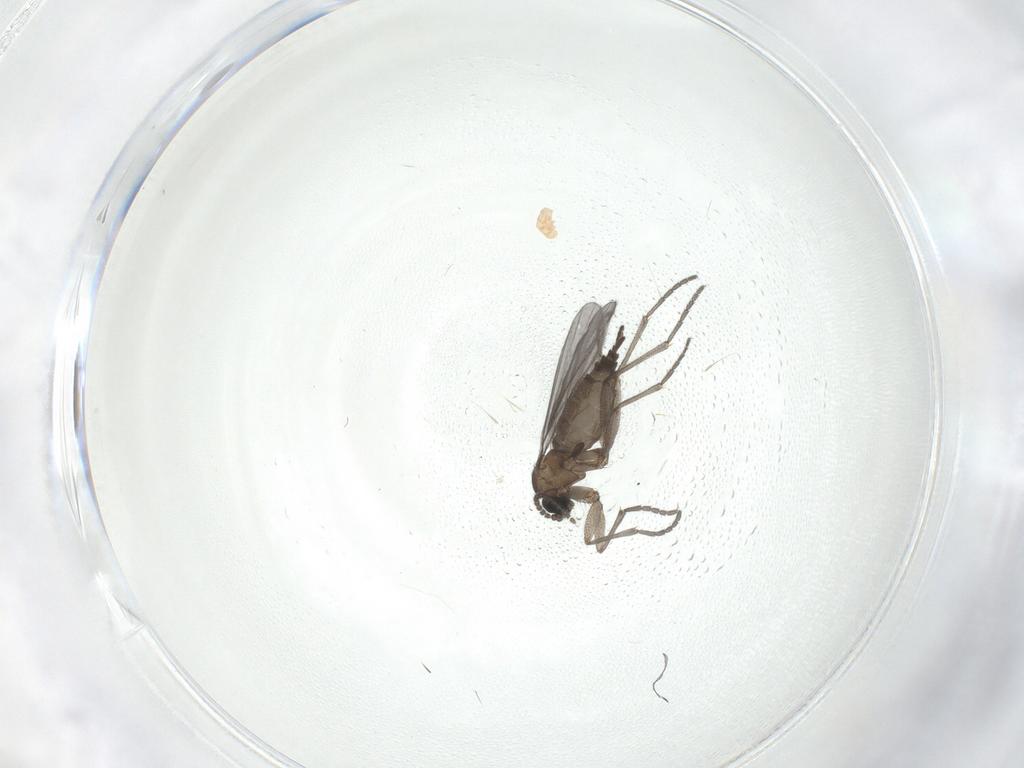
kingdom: Animalia
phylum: Arthropoda
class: Insecta
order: Diptera
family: Sciaridae
